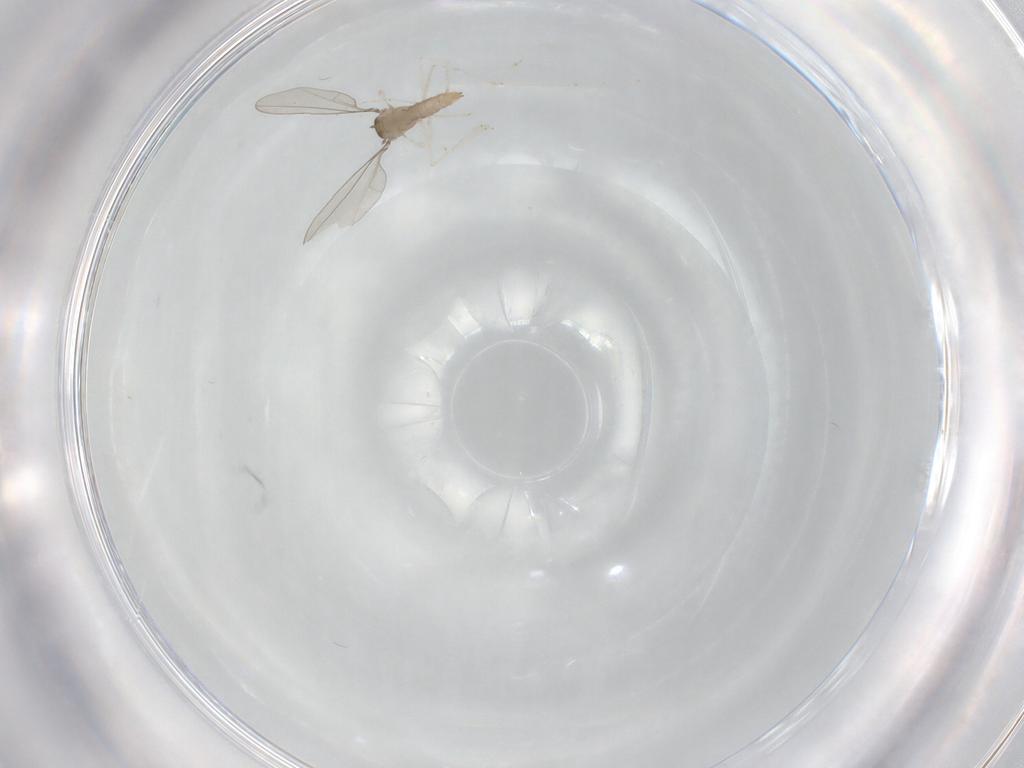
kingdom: Animalia
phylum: Arthropoda
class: Insecta
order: Diptera
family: Cecidomyiidae
